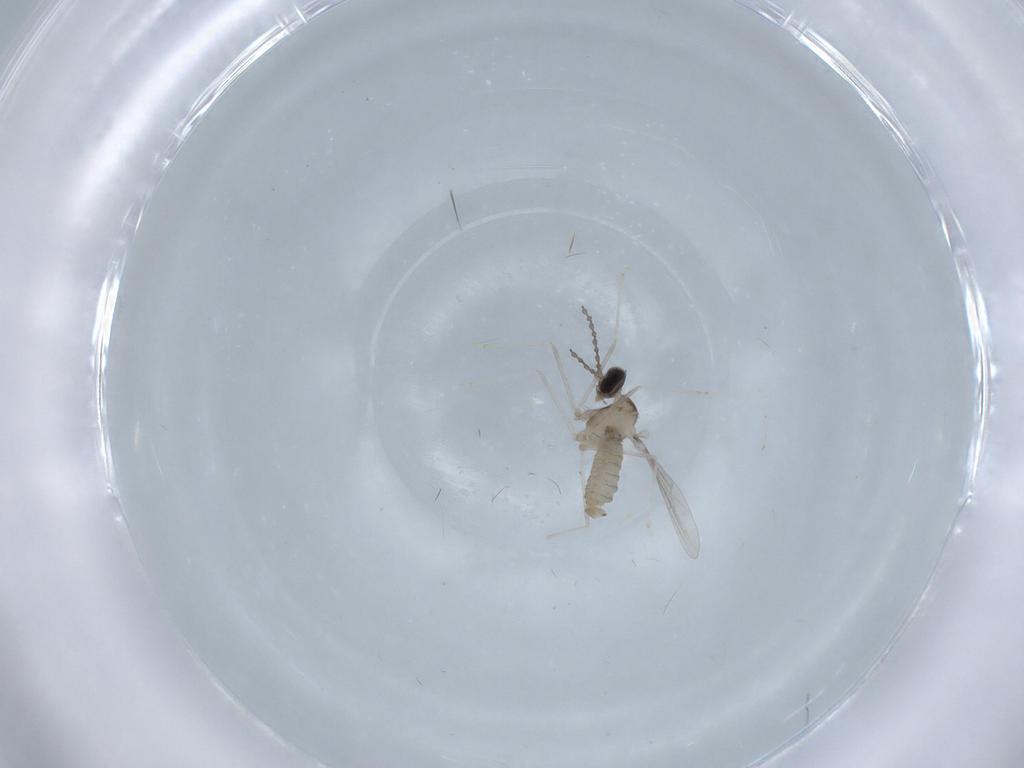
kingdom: Animalia
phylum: Arthropoda
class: Insecta
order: Diptera
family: Cecidomyiidae
